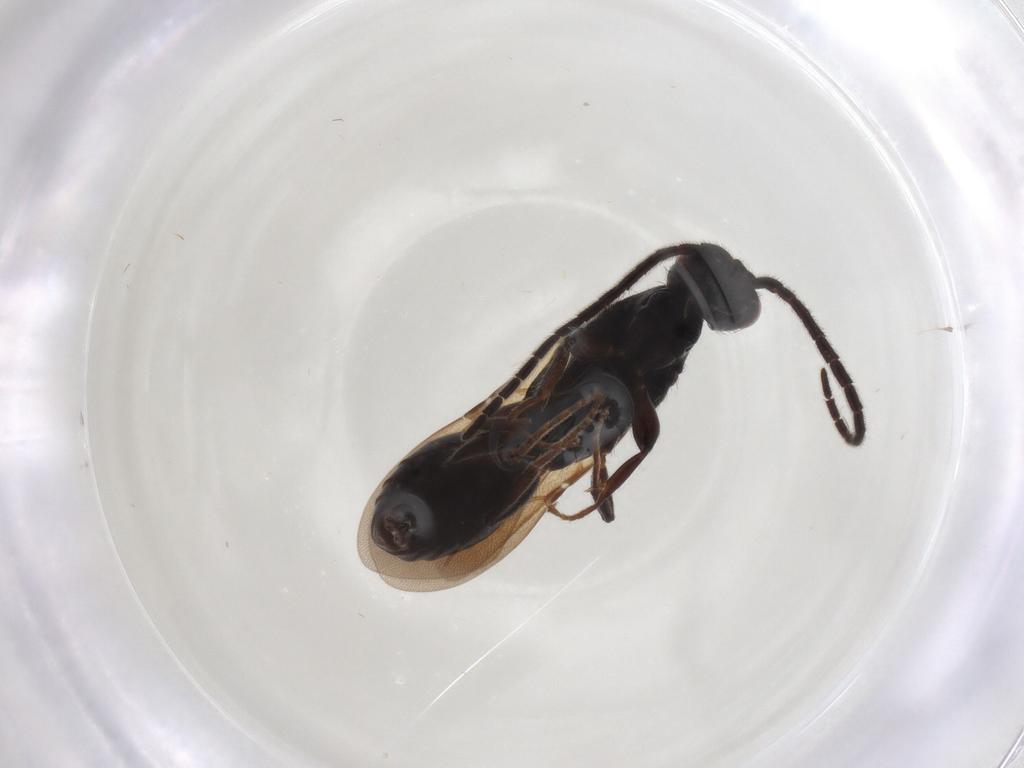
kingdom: Animalia
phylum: Arthropoda
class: Insecta
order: Hymenoptera
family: Bethylidae
